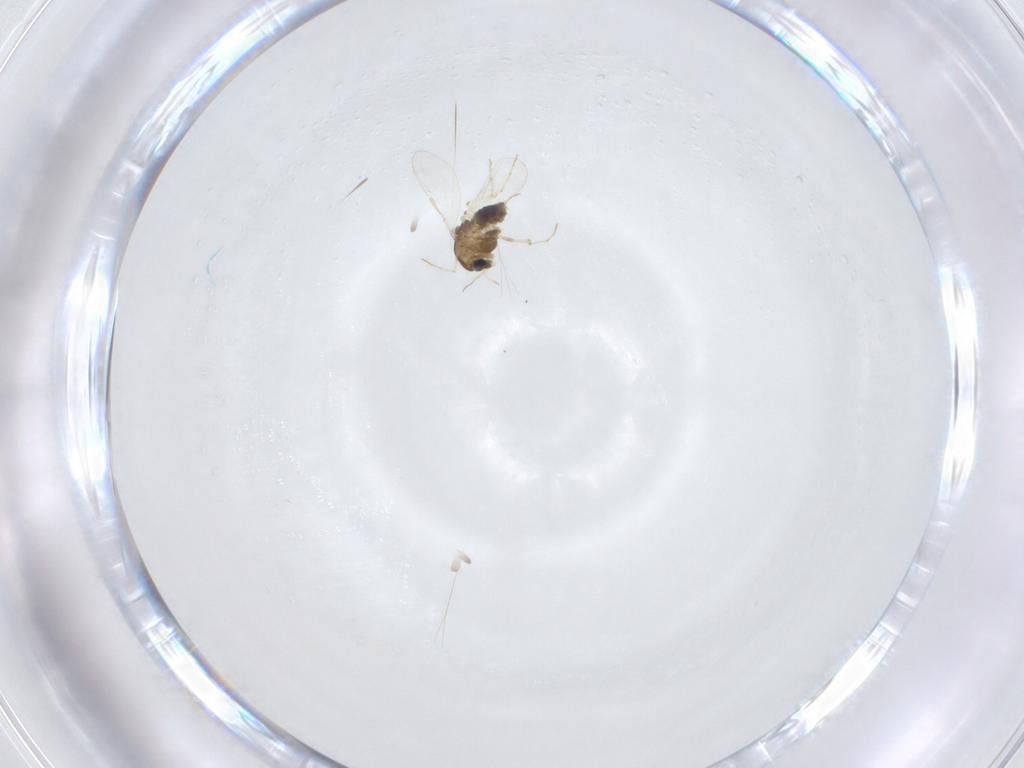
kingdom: Animalia
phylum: Arthropoda
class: Insecta
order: Diptera
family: Chironomidae
